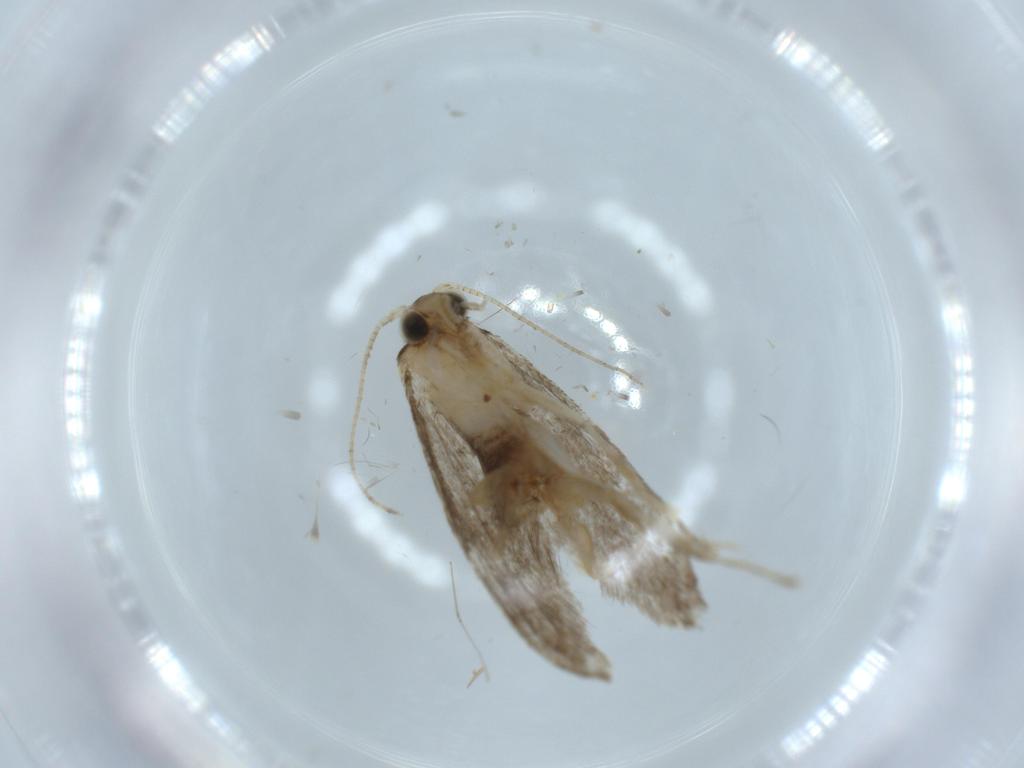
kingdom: Animalia
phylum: Arthropoda
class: Insecta
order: Lepidoptera
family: Tineidae
